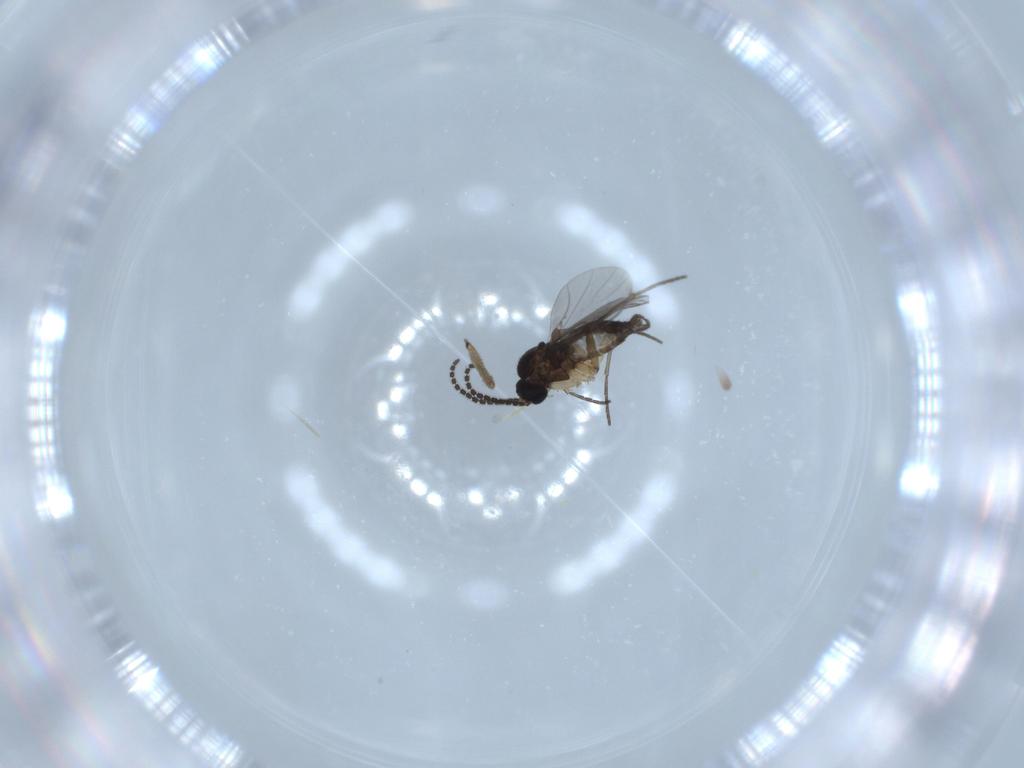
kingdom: Animalia
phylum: Arthropoda
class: Insecta
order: Diptera
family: Sciaridae
